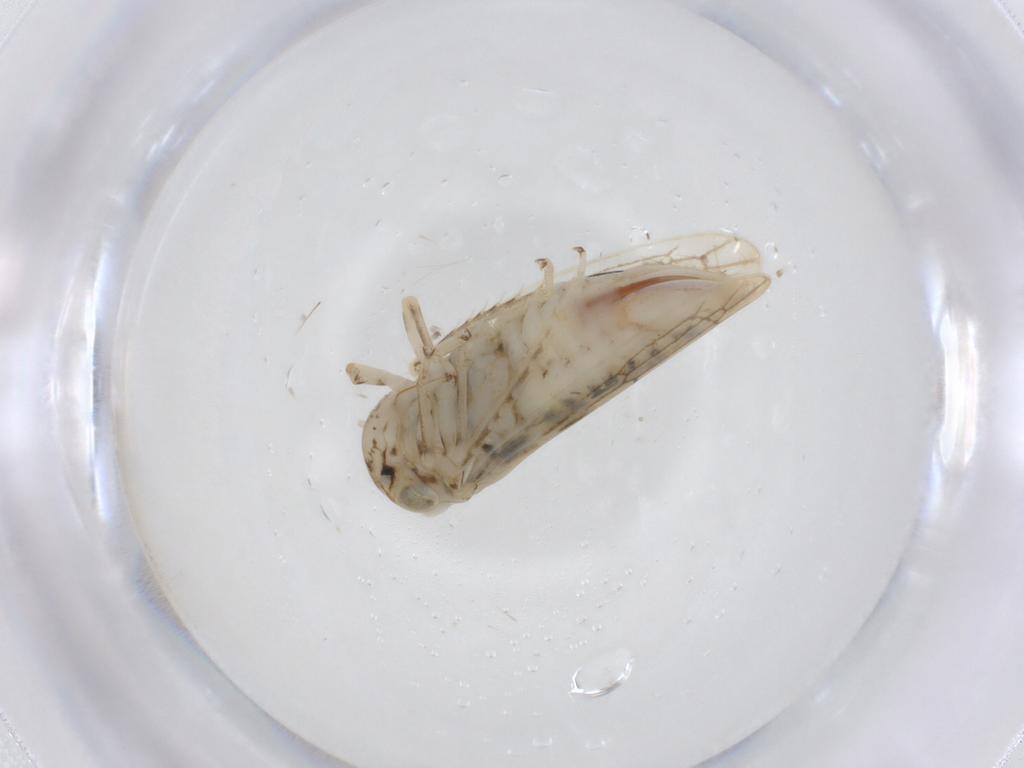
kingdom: Animalia
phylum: Arthropoda
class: Insecta
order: Hemiptera
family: Cicadellidae
